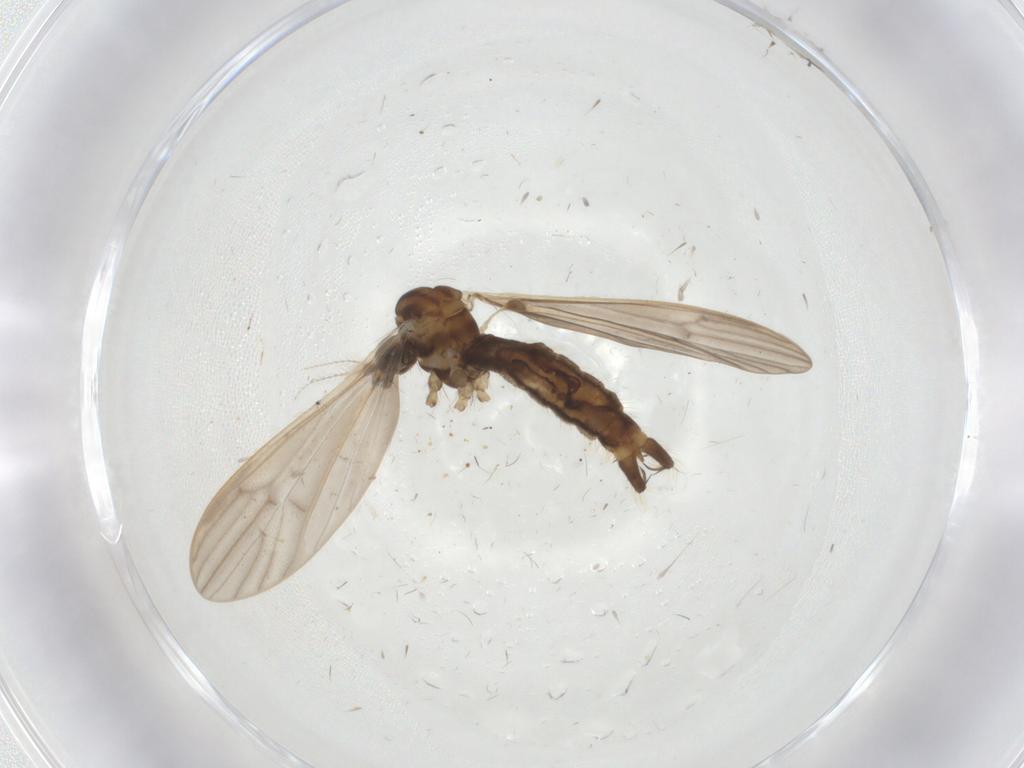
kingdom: Animalia
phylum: Arthropoda
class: Insecta
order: Diptera
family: Limoniidae
